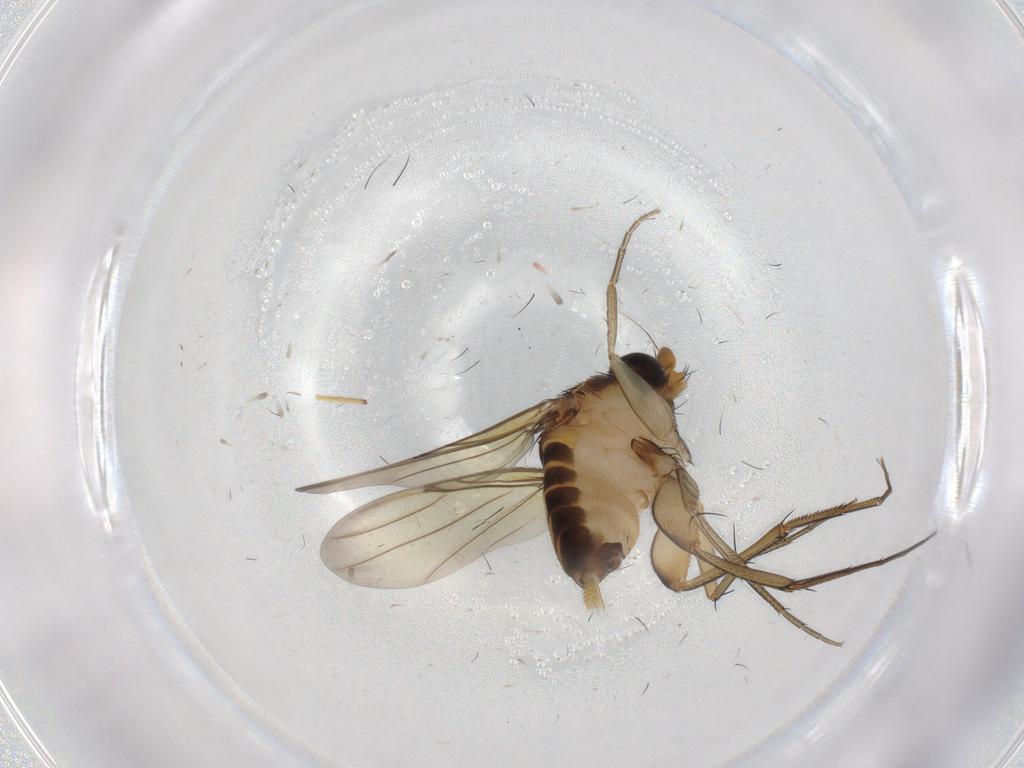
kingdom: Animalia
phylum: Arthropoda
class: Insecta
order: Diptera
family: Phoridae
